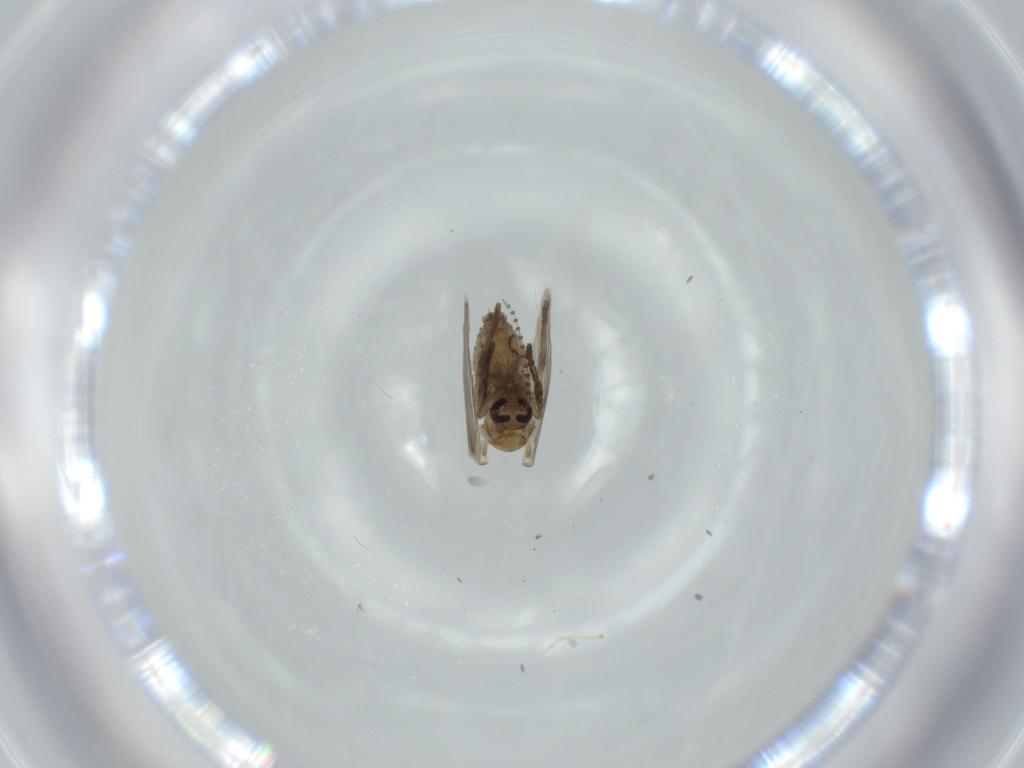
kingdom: Animalia
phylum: Arthropoda
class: Insecta
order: Diptera
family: Psychodidae
